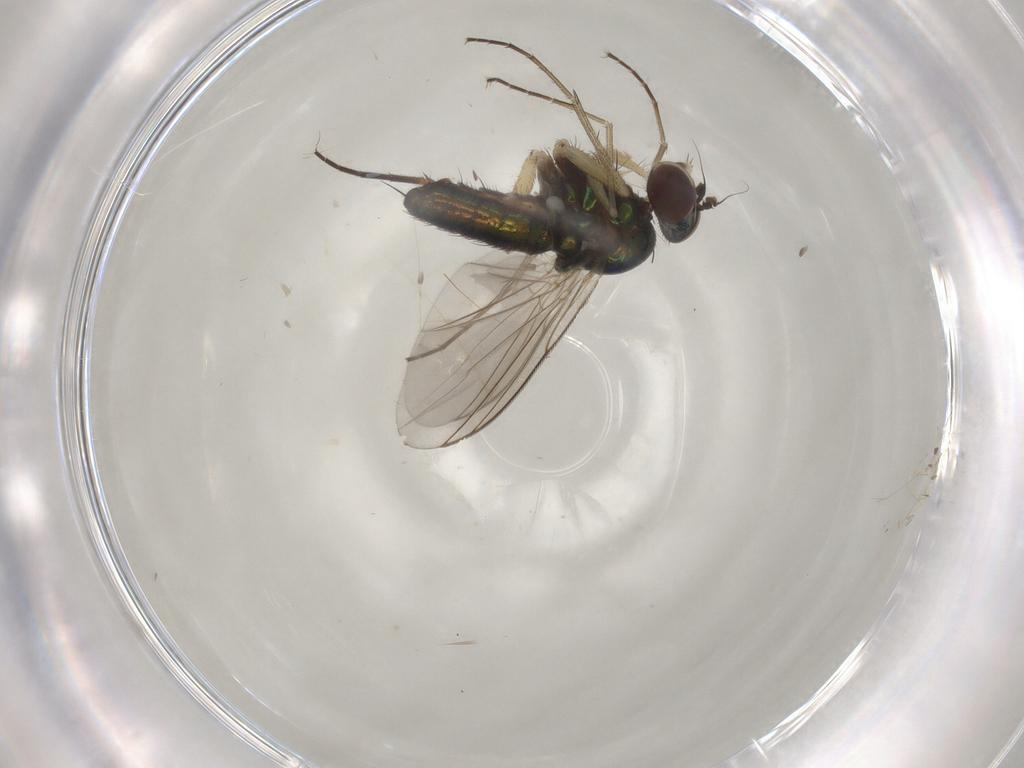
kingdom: Animalia
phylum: Arthropoda
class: Insecta
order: Diptera
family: Dolichopodidae
